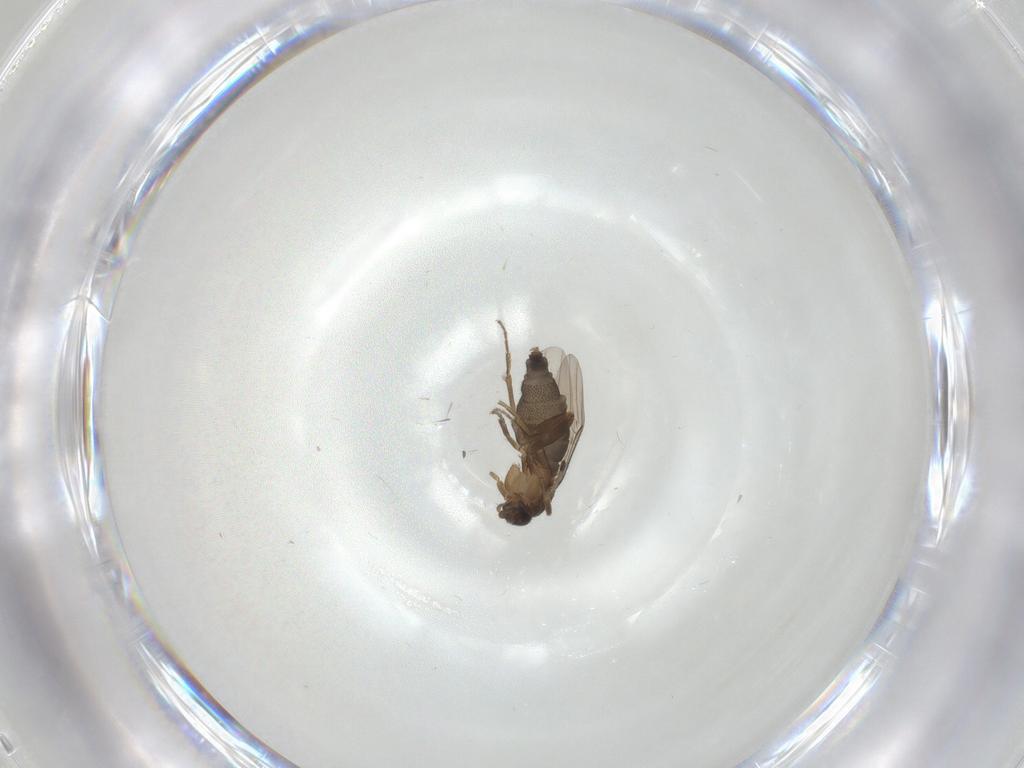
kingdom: Animalia
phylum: Arthropoda
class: Insecta
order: Diptera
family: Phoridae
